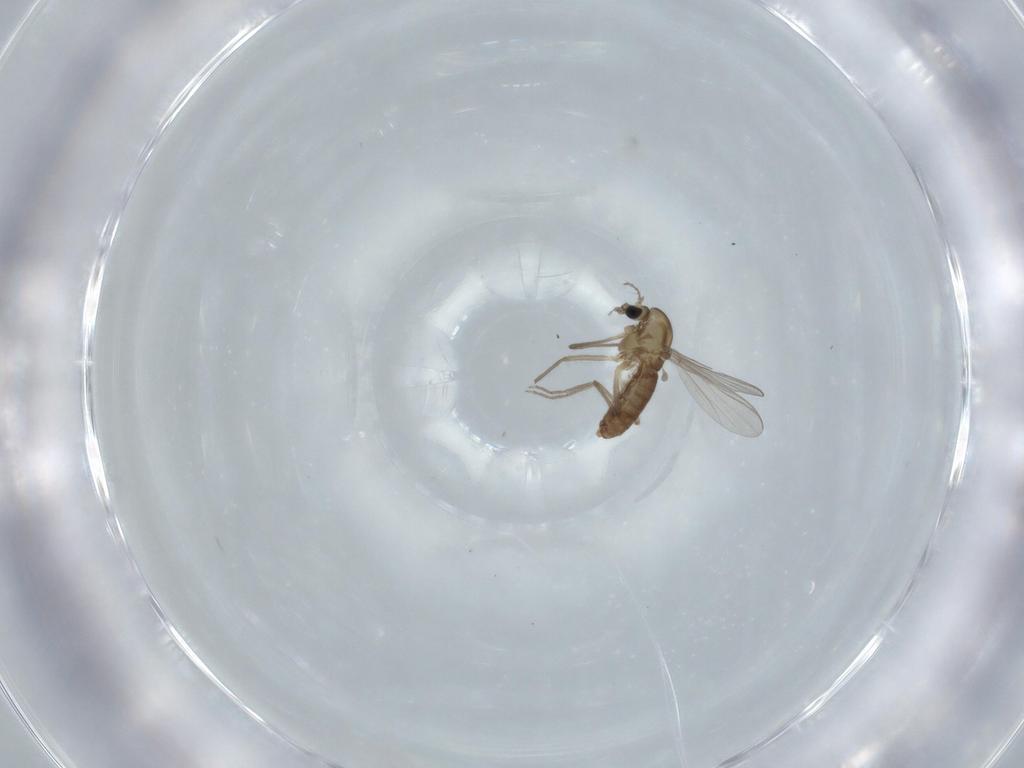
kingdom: Animalia
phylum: Arthropoda
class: Insecta
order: Diptera
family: Chironomidae
